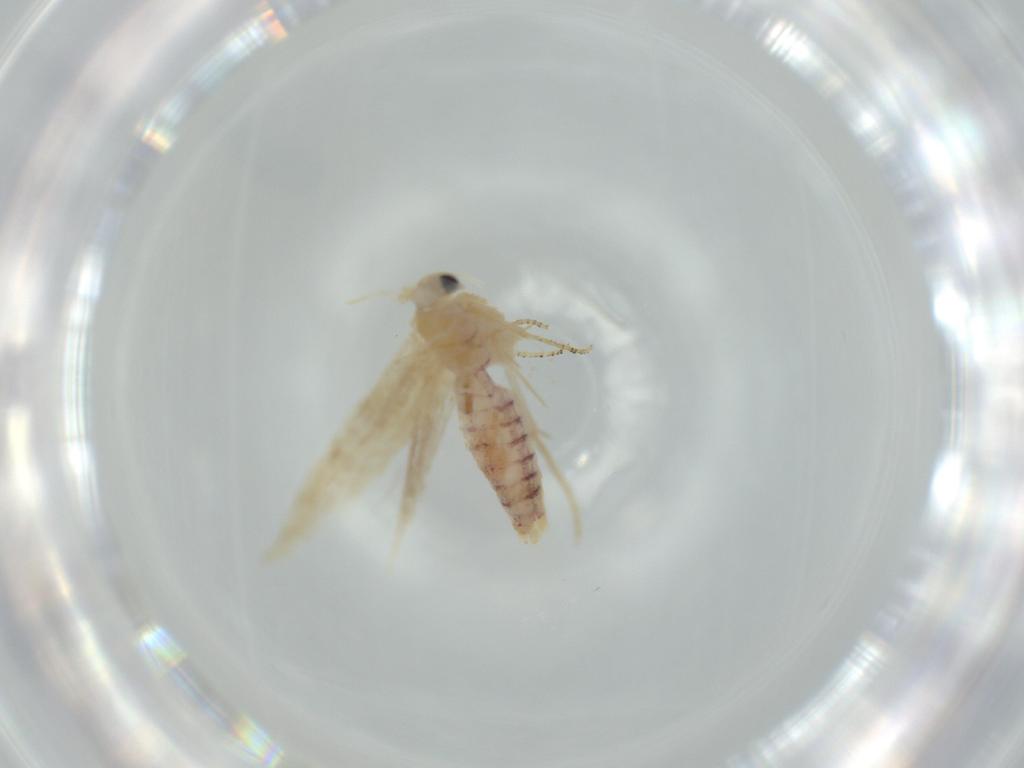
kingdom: Animalia
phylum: Arthropoda
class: Insecta
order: Lepidoptera
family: Bucculatricidae
